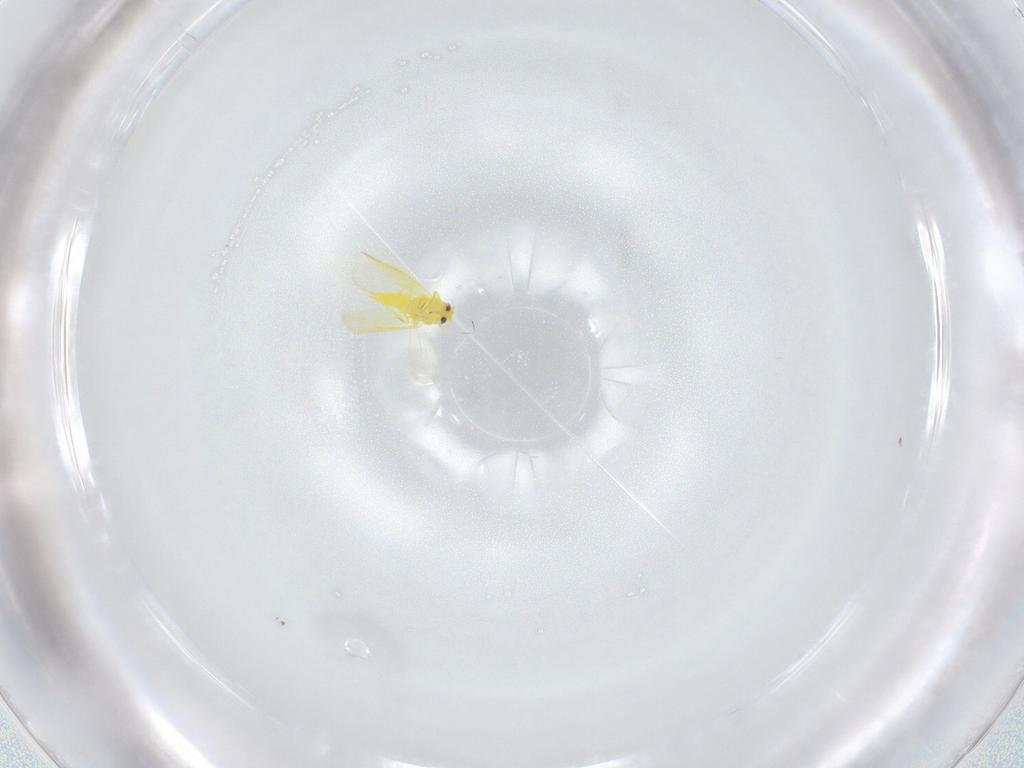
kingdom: Animalia
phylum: Arthropoda
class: Insecta
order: Hemiptera
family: Aleyrodidae
